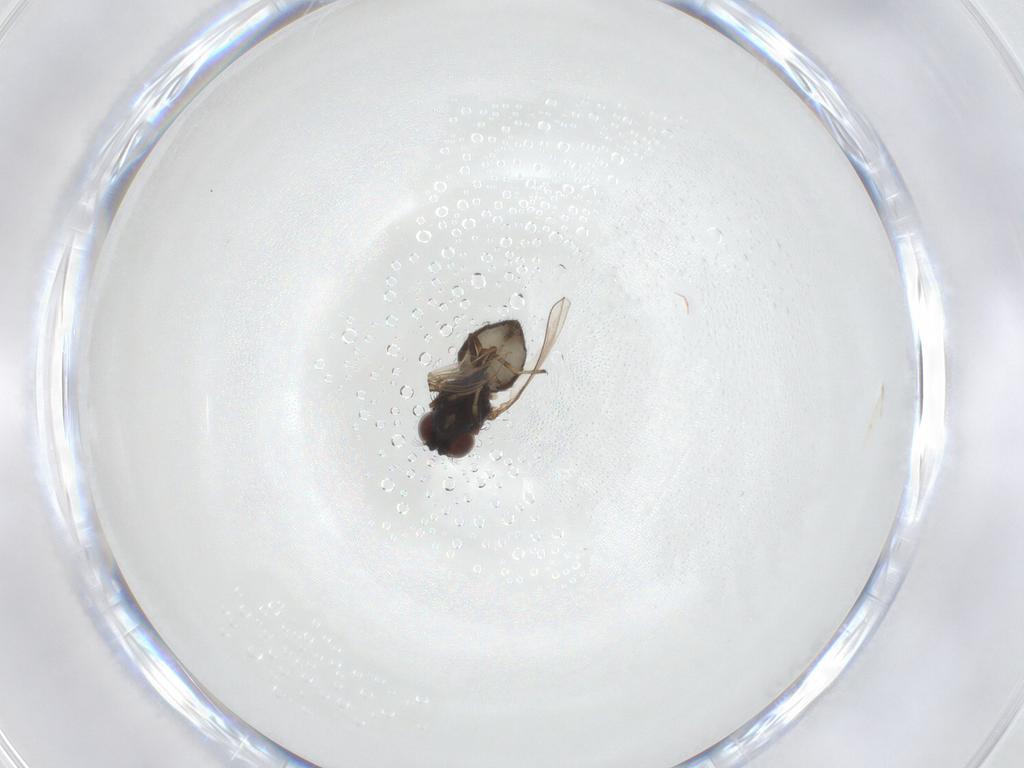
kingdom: Animalia
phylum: Arthropoda
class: Insecta
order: Diptera
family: Ephydridae
